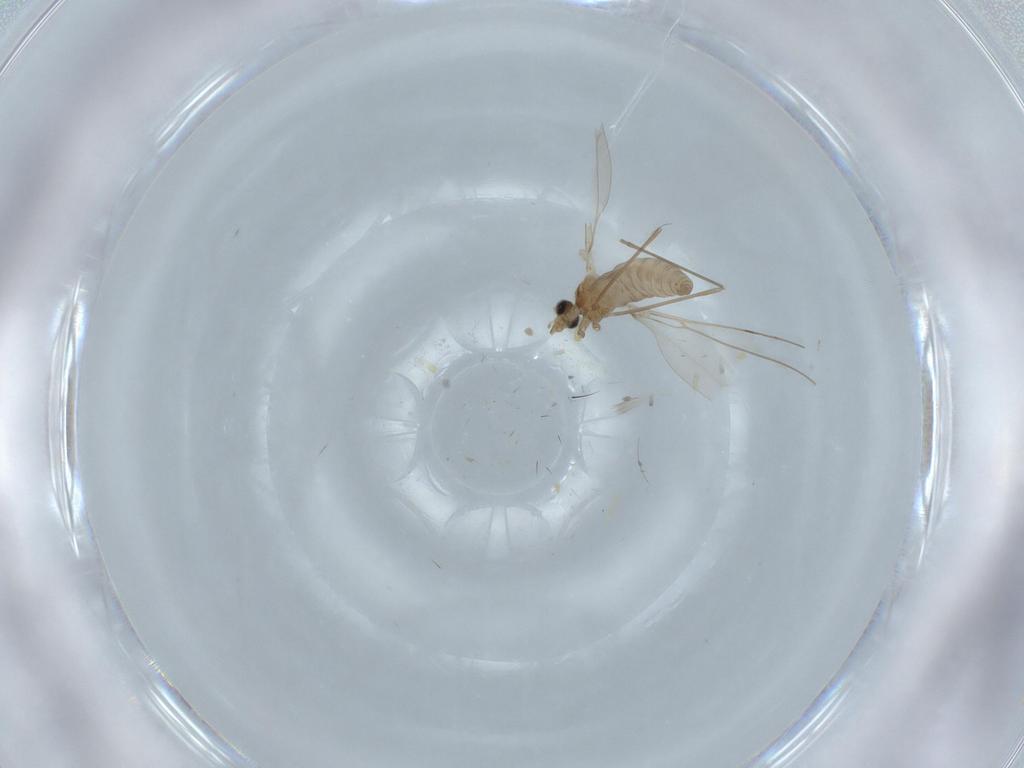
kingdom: Animalia
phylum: Arthropoda
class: Insecta
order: Diptera
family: Cecidomyiidae
